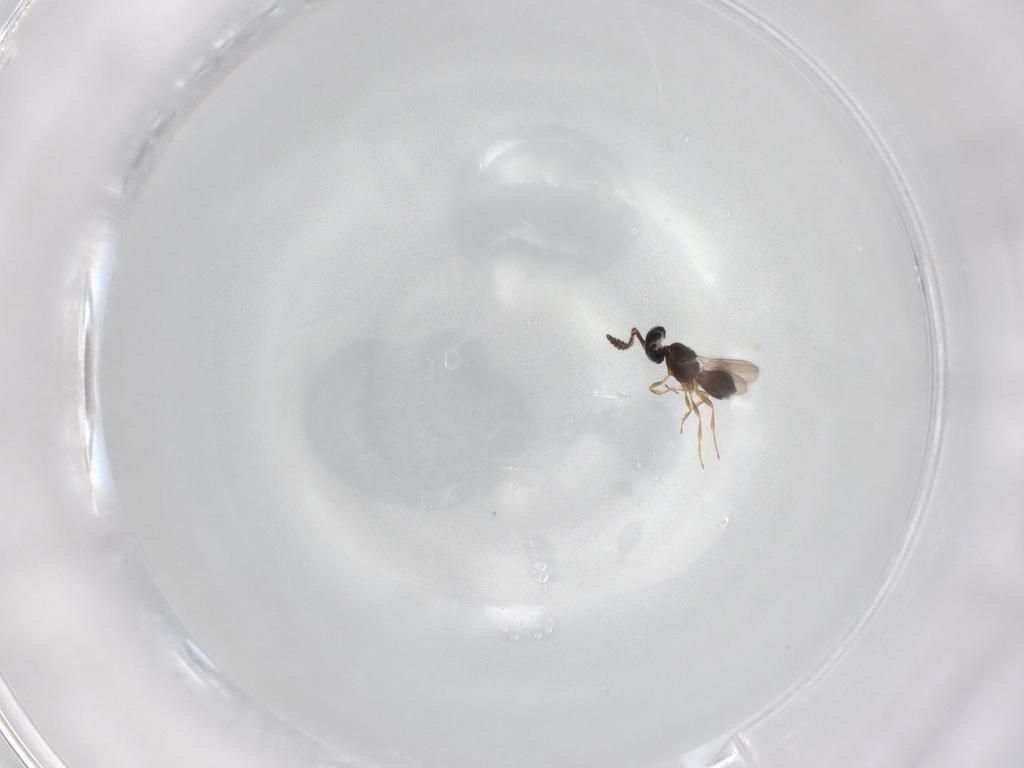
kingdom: Animalia
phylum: Arthropoda
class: Insecta
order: Hymenoptera
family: Scelionidae
